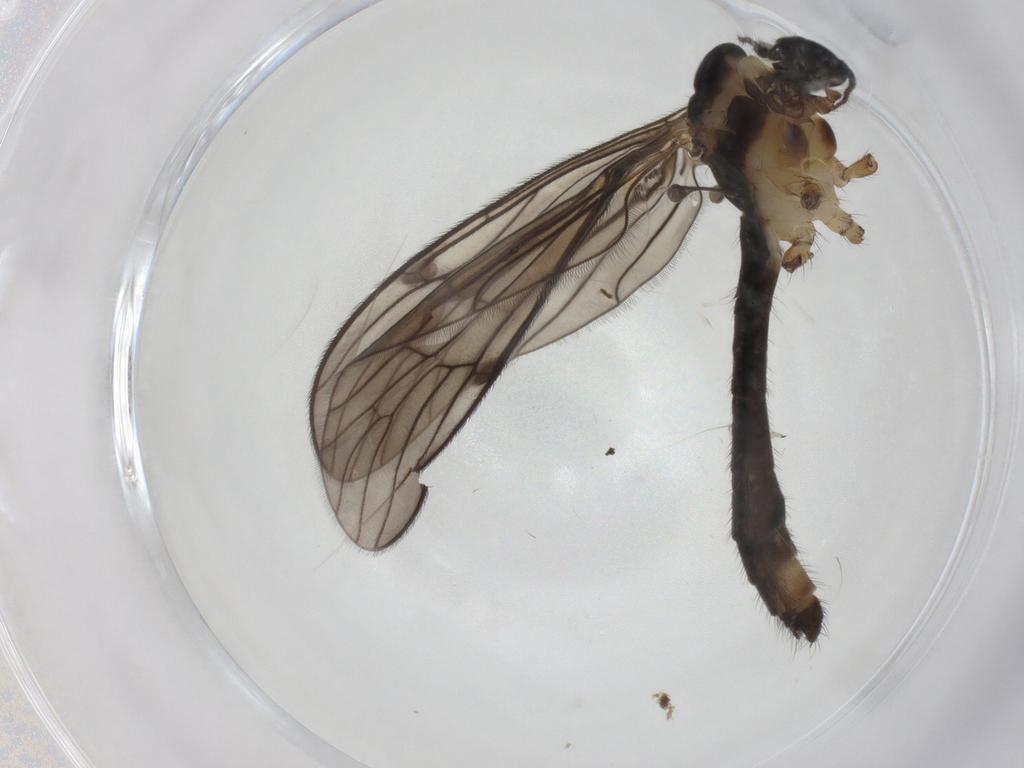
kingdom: Animalia
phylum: Arthropoda
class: Insecta
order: Diptera
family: Limoniidae
